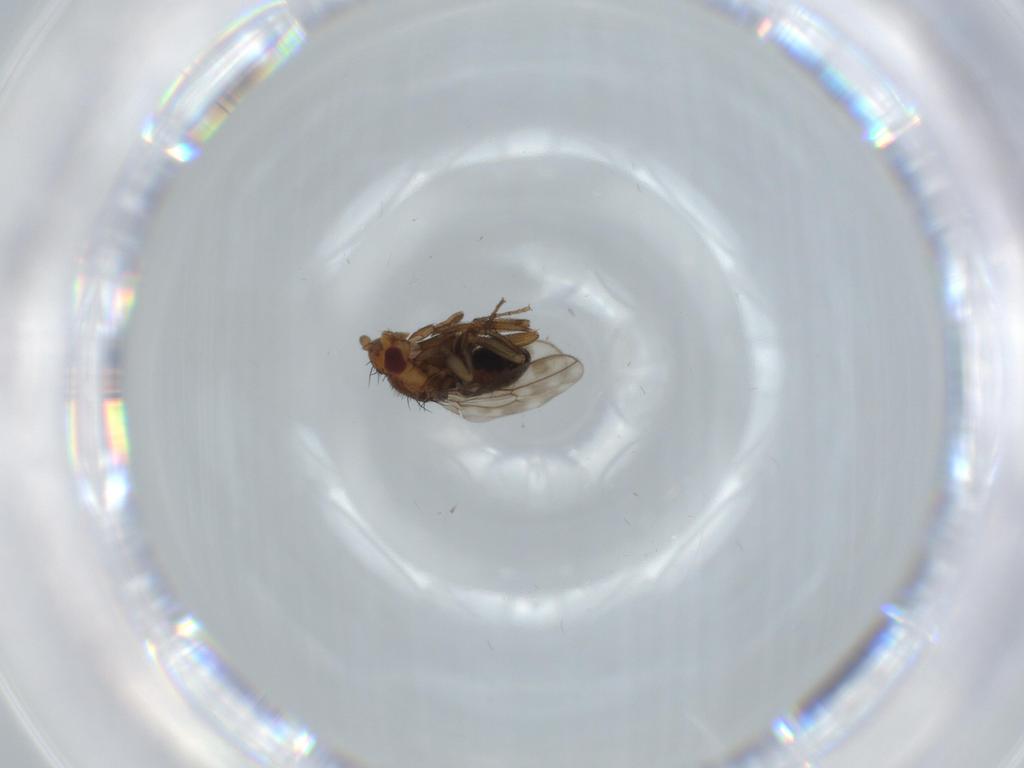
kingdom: Animalia
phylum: Arthropoda
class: Insecta
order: Diptera
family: Sphaeroceridae
